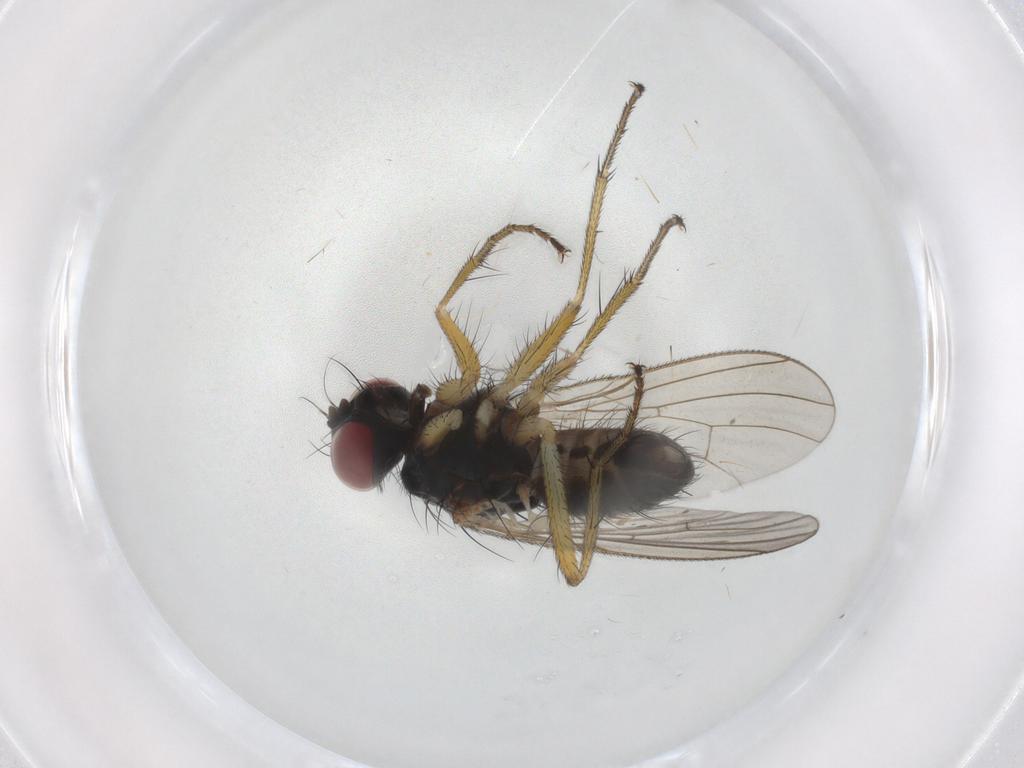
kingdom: Animalia
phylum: Arthropoda
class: Insecta
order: Diptera
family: Muscidae
